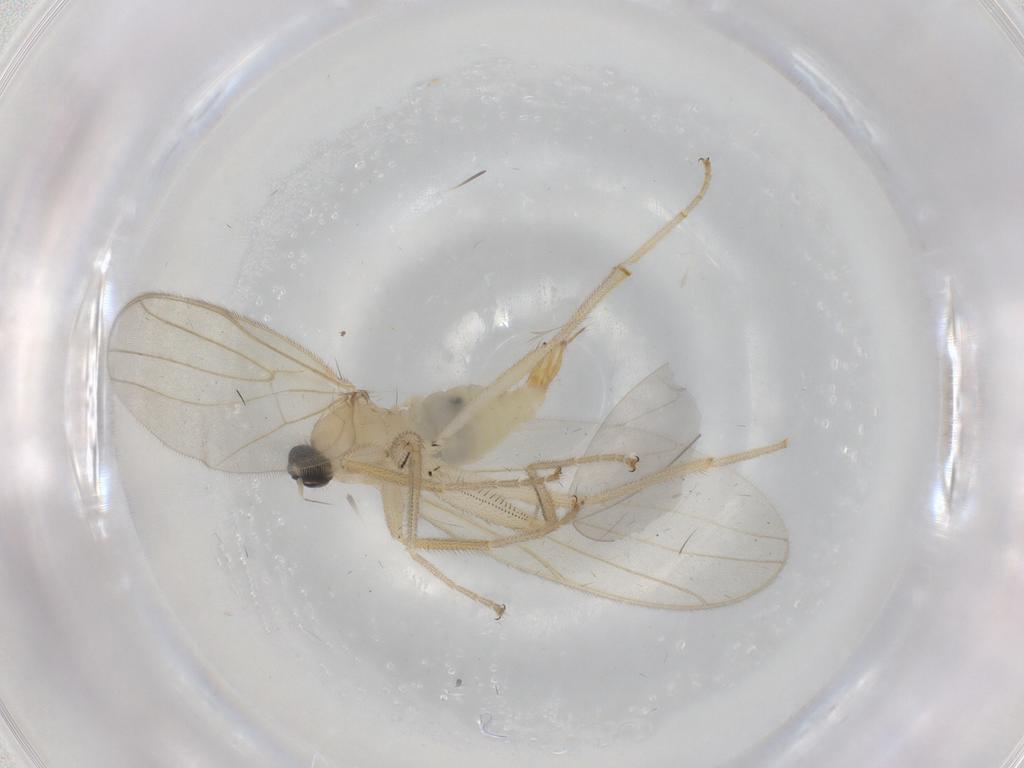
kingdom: Animalia
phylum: Arthropoda
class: Insecta
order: Diptera
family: Hybotidae
